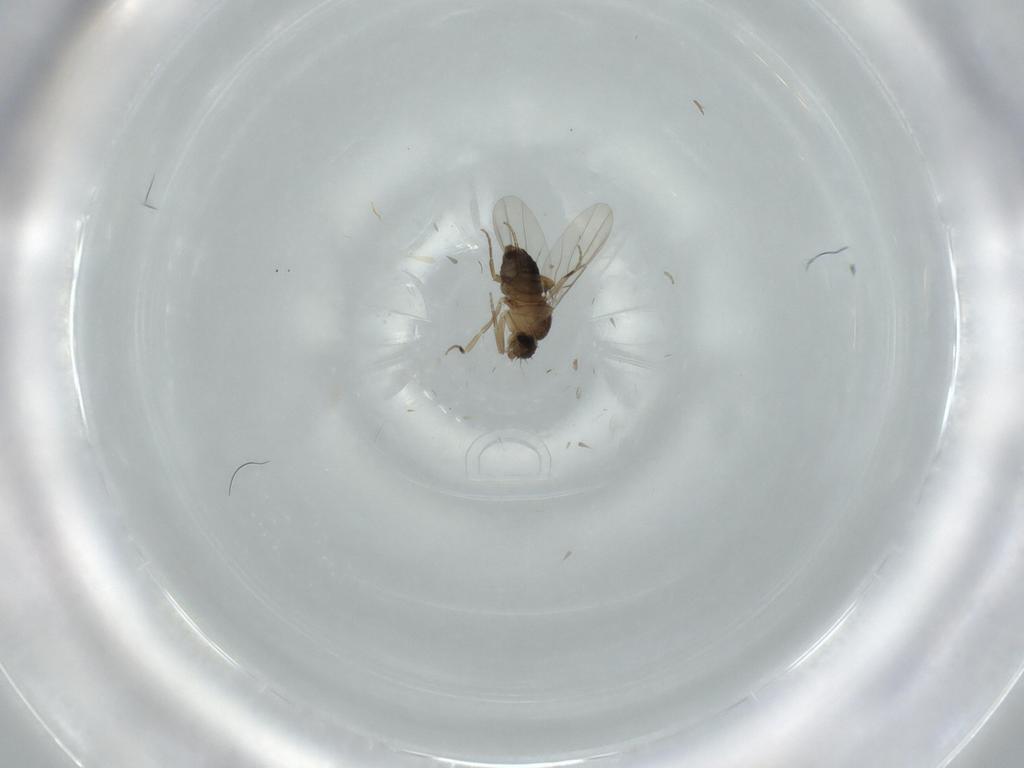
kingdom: Animalia
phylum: Arthropoda
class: Insecta
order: Diptera
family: Phoridae
